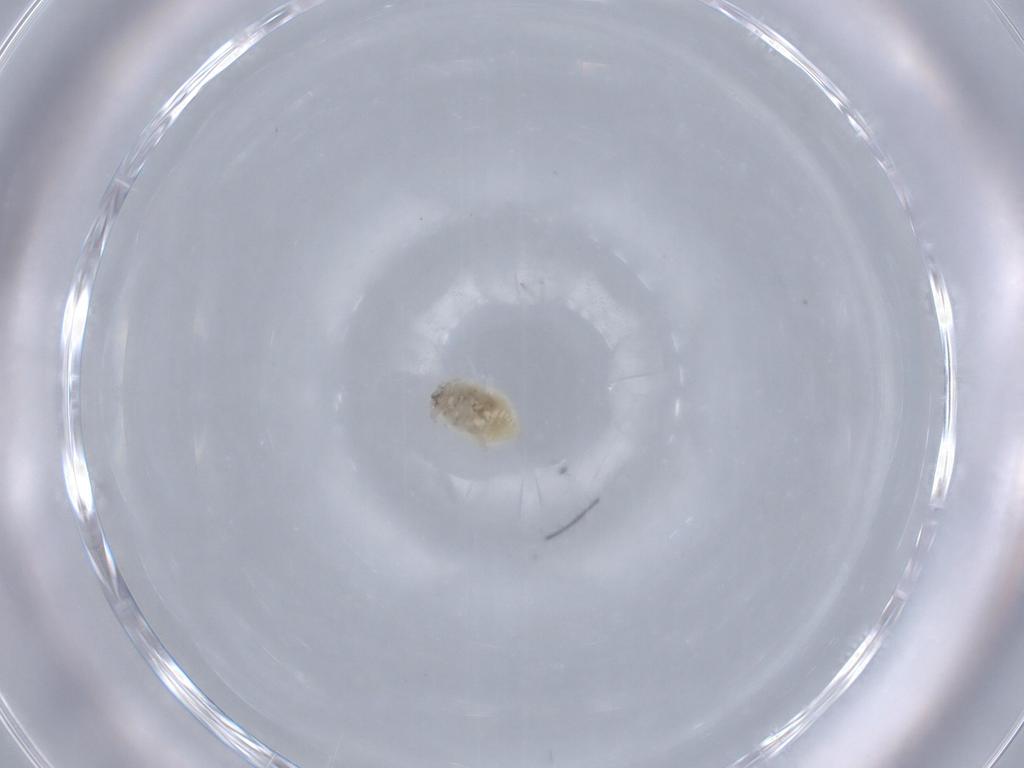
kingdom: Animalia
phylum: Arthropoda
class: Insecta
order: Neuroptera
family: Coniopterygidae
